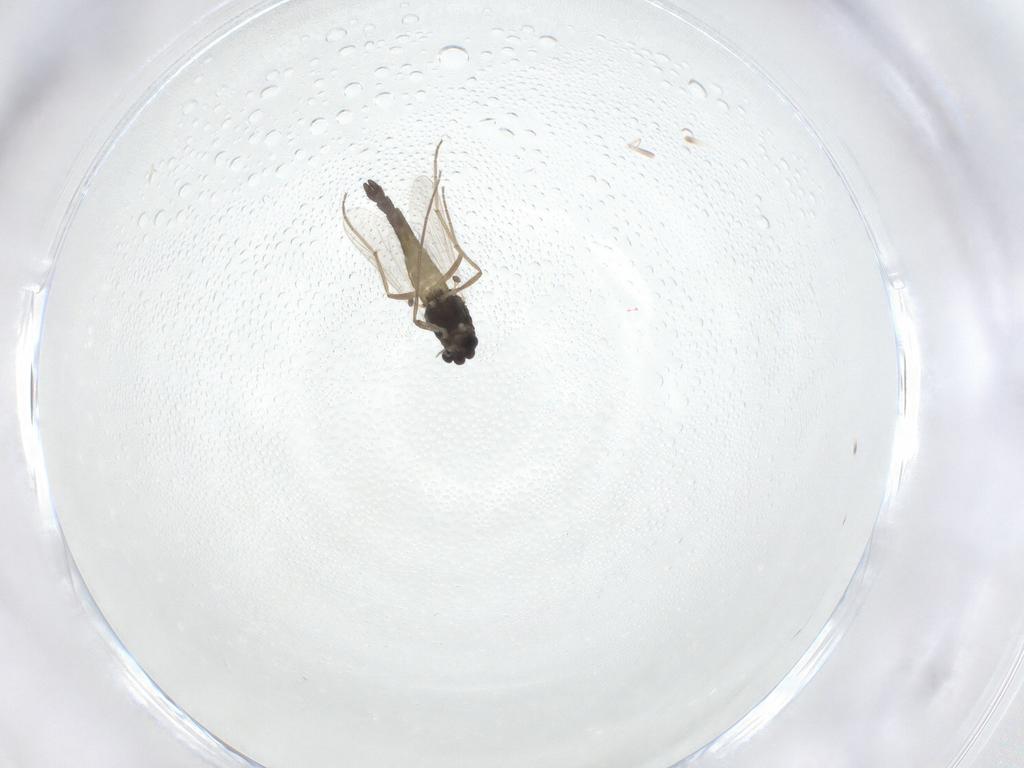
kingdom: Animalia
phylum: Arthropoda
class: Insecta
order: Diptera
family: Chironomidae
